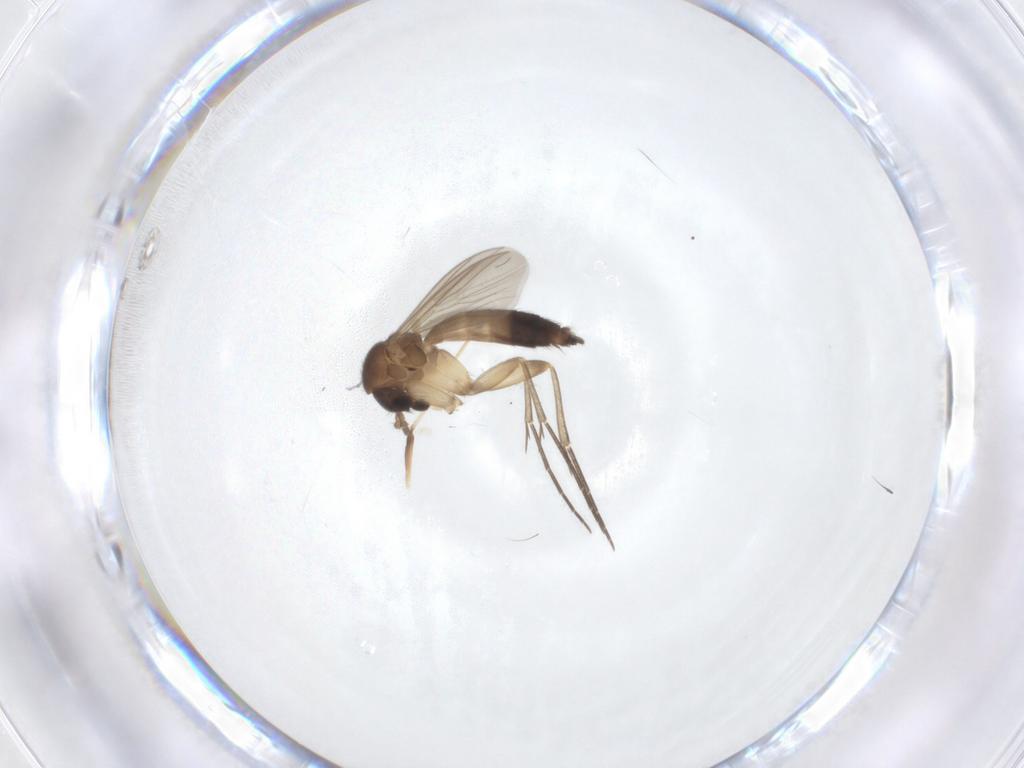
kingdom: Animalia
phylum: Arthropoda
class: Insecta
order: Diptera
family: Mycetophilidae
